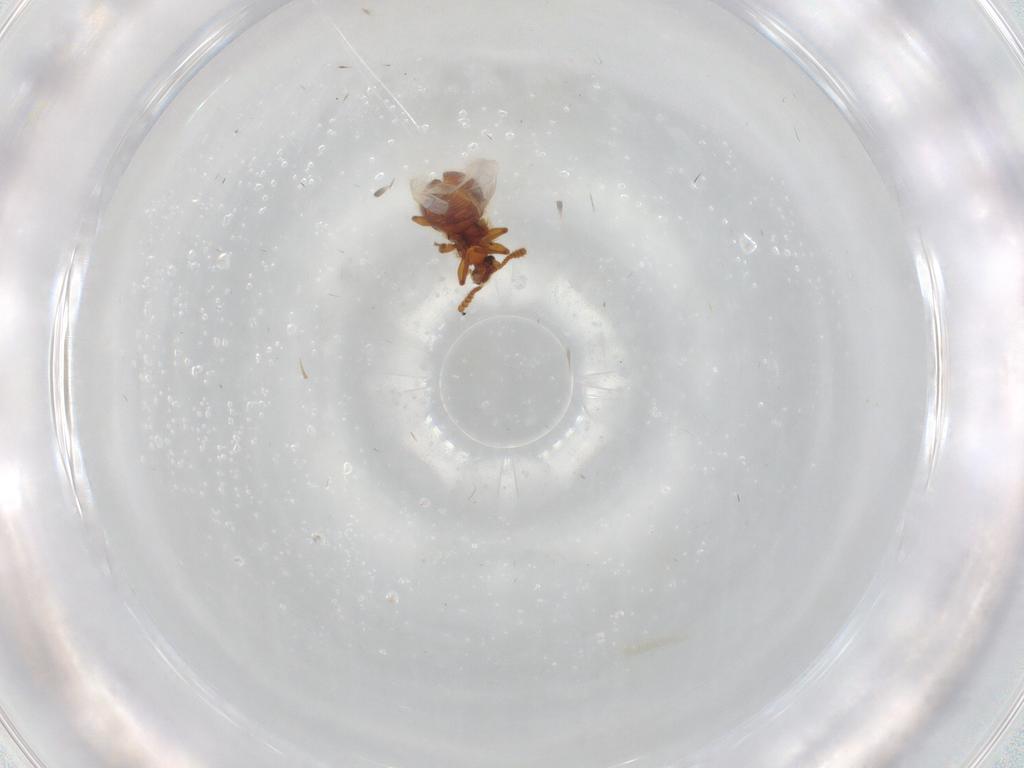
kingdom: Animalia
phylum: Arthropoda
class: Insecta
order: Coleoptera
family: Staphylinidae
